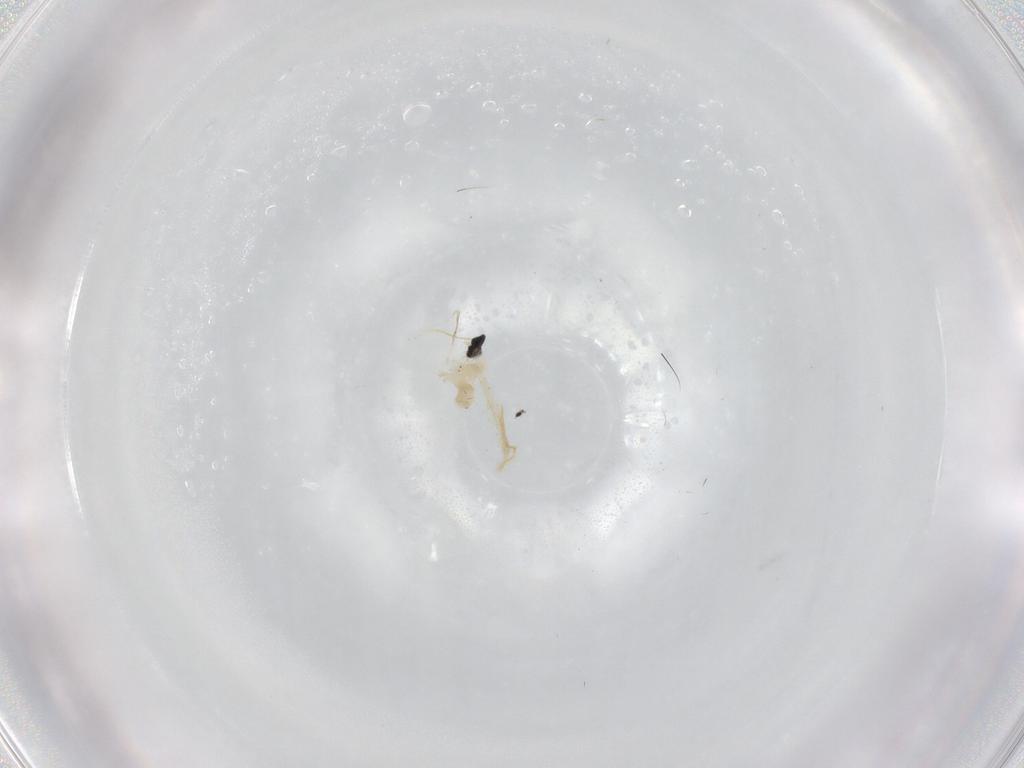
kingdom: Animalia
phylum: Arthropoda
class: Insecta
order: Diptera
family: Cecidomyiidae
